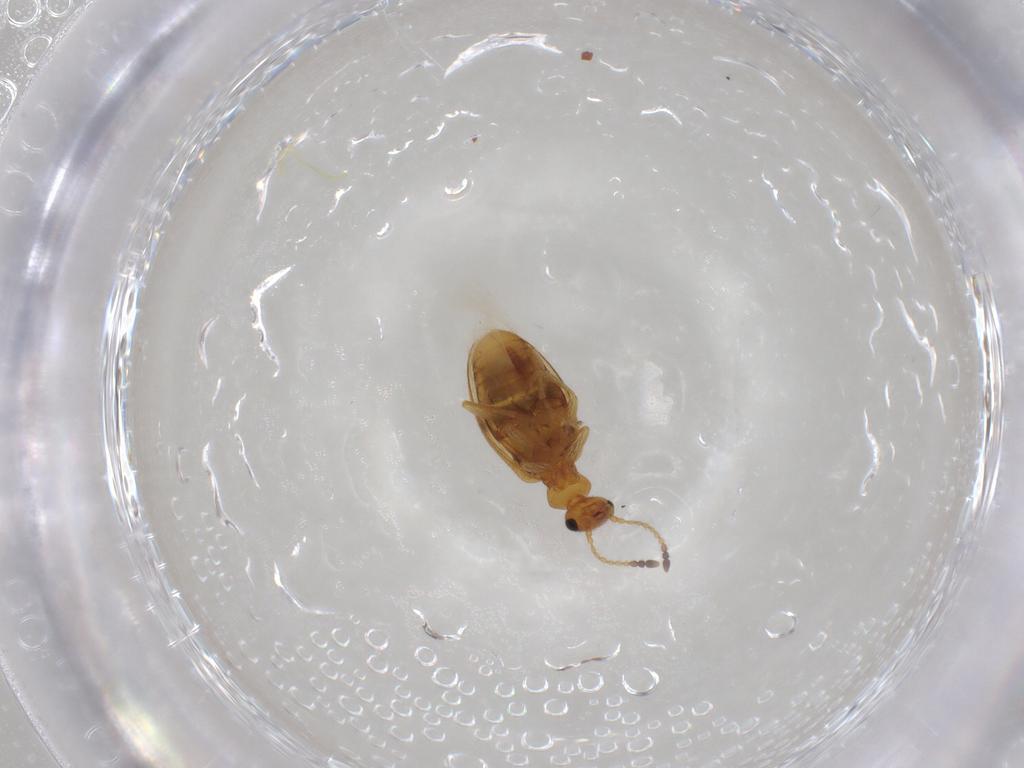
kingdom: Animalia
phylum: Arthropoda
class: Insecta
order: Coleoptera
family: Anthicidae
